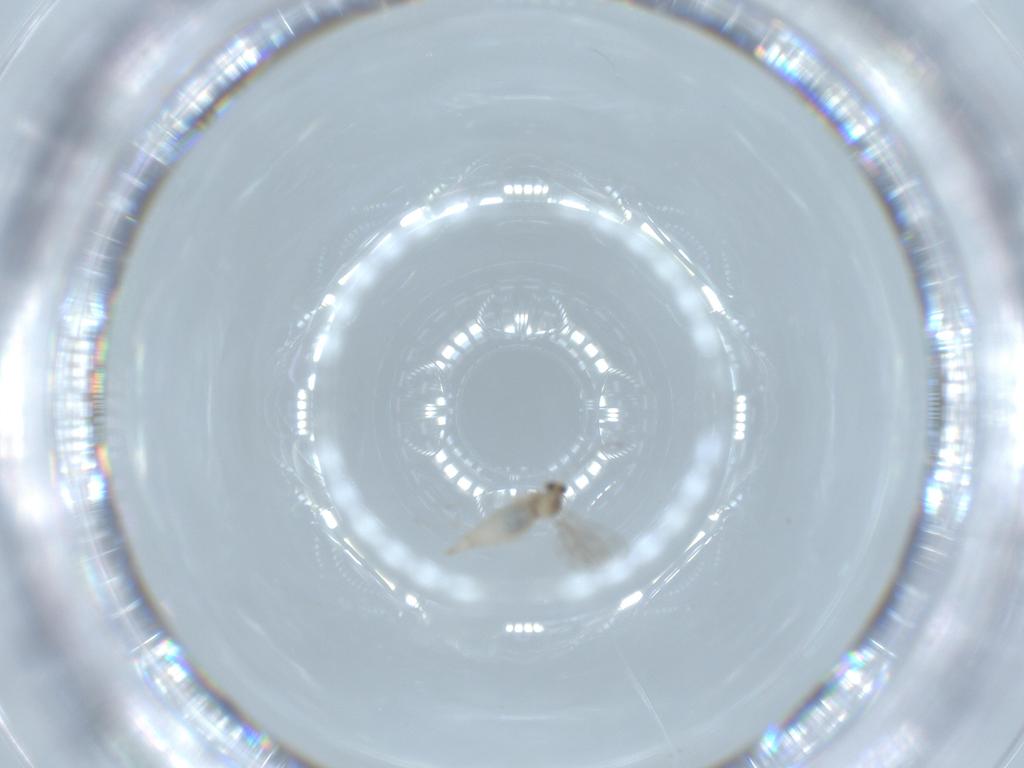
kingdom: Animalia
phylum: Arthropoda
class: Insecta
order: Diptera
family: Cecidomyiidae
